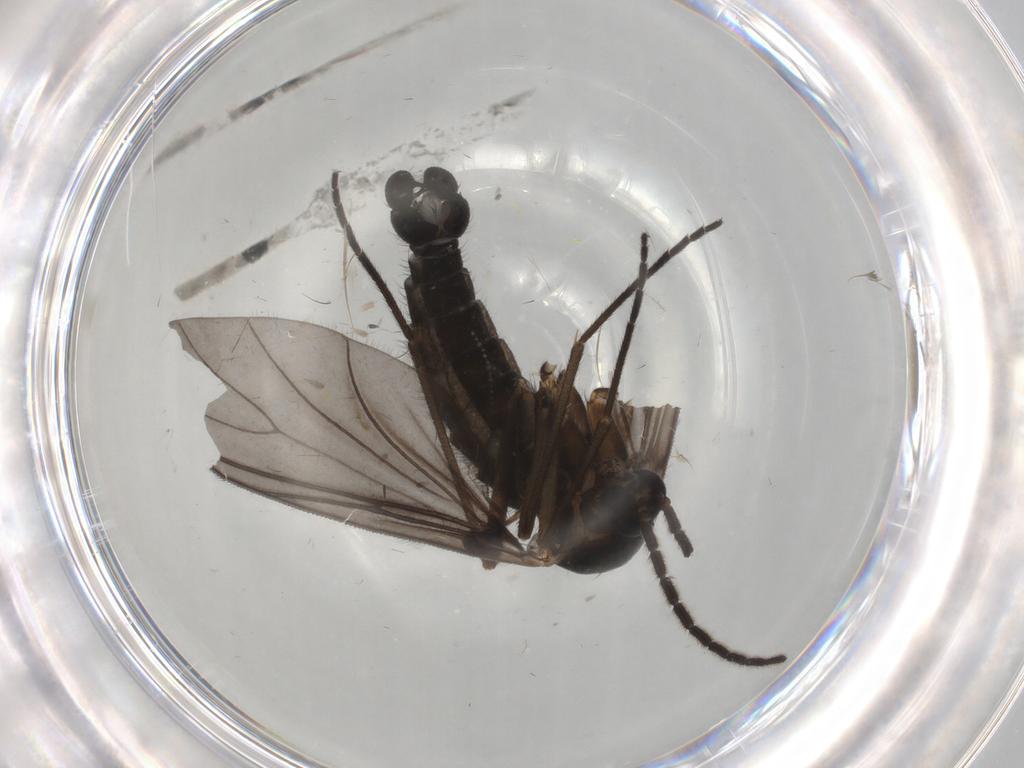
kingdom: Animalia
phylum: Arthropoda
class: Insecta
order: Diptera
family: Sciaridae
